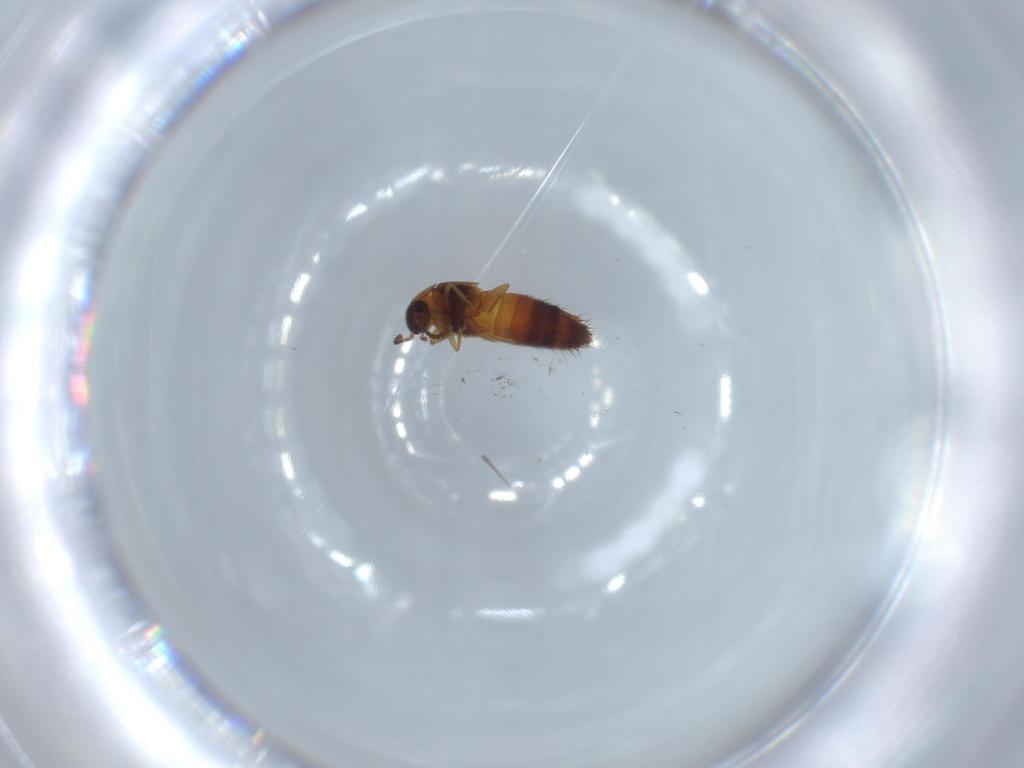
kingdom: Animalia
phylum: Arthropoda
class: Insecta
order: Coleoptera
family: Staphylinidae
